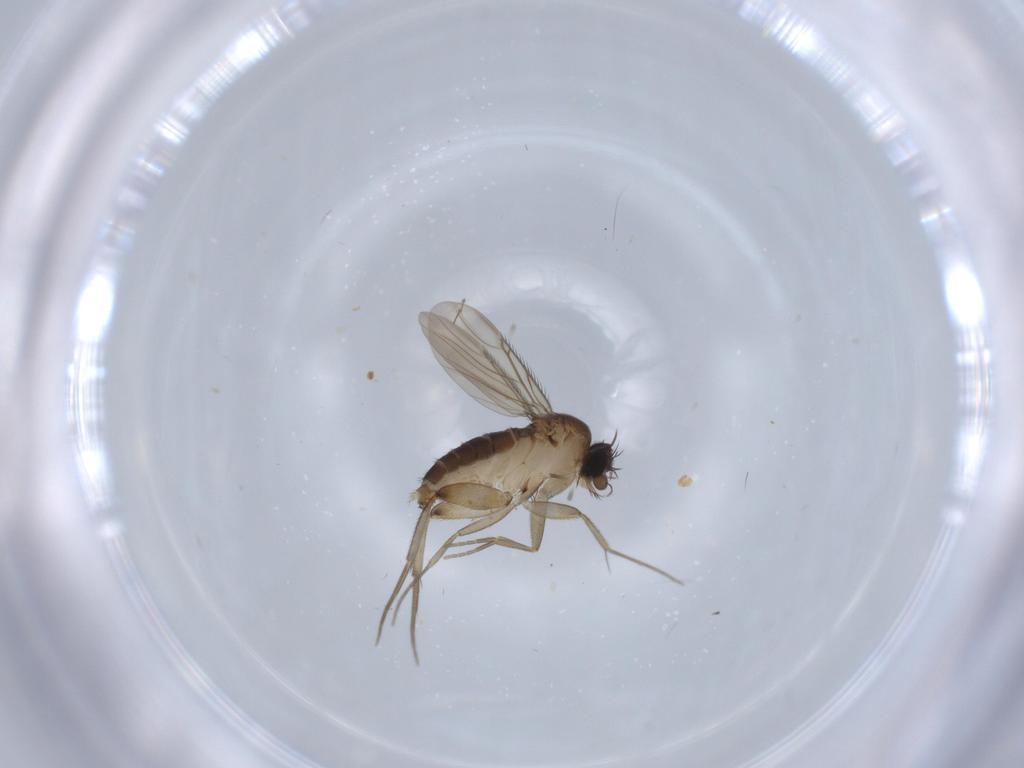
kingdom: Animalia
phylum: Arthropoda
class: Insecta
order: Diptera
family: Phoridae
